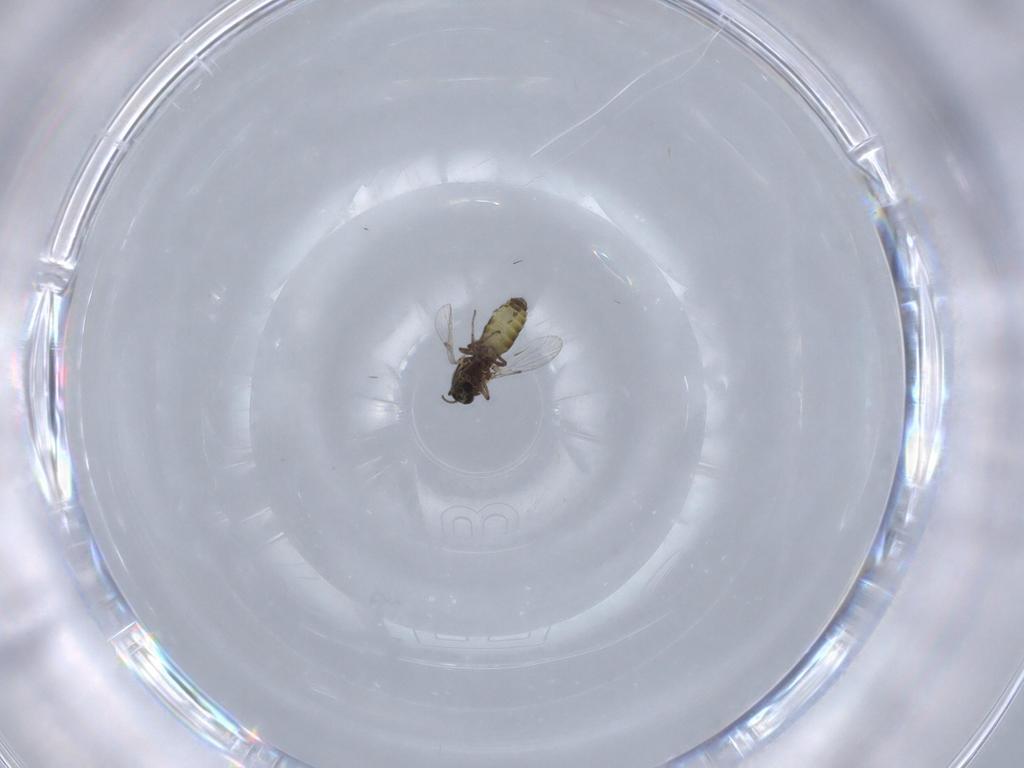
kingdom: Animalia
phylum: Arthropoda
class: Insecta
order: Diptera
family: Ceratopogonidae
